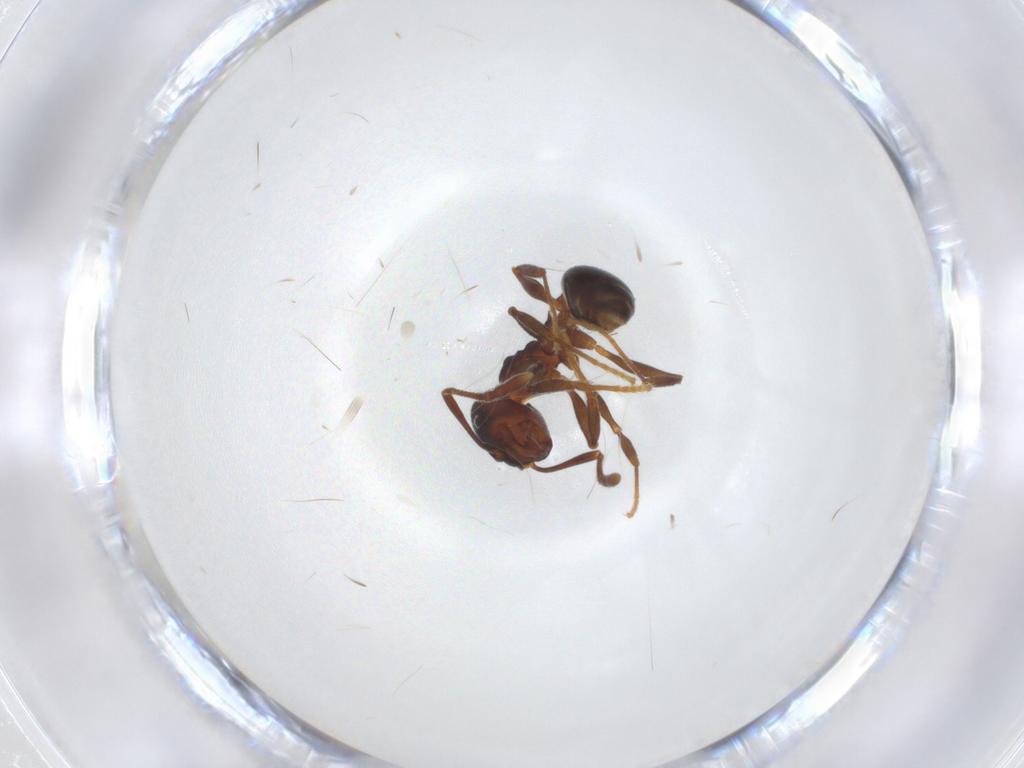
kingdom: Animalia
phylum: Arthropoda
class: Insecta
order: Hymenoptera
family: Formicidae
